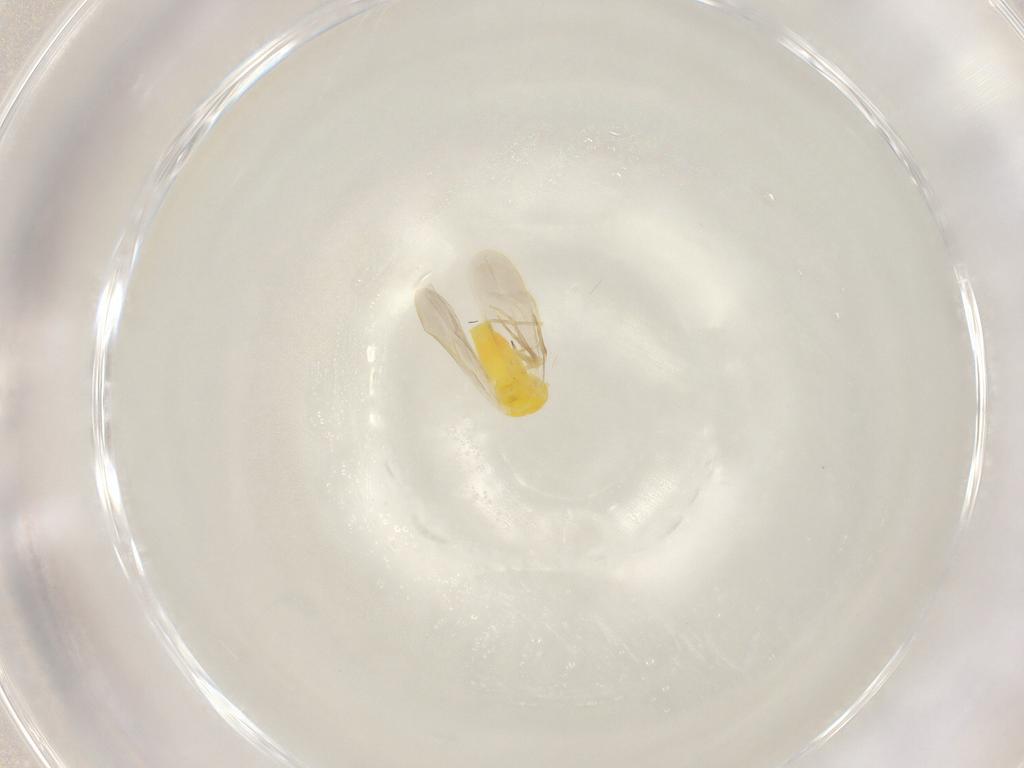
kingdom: Animalia
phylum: Arthropoda
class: Insecta
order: Hemiptera
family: Aleyrodidae
